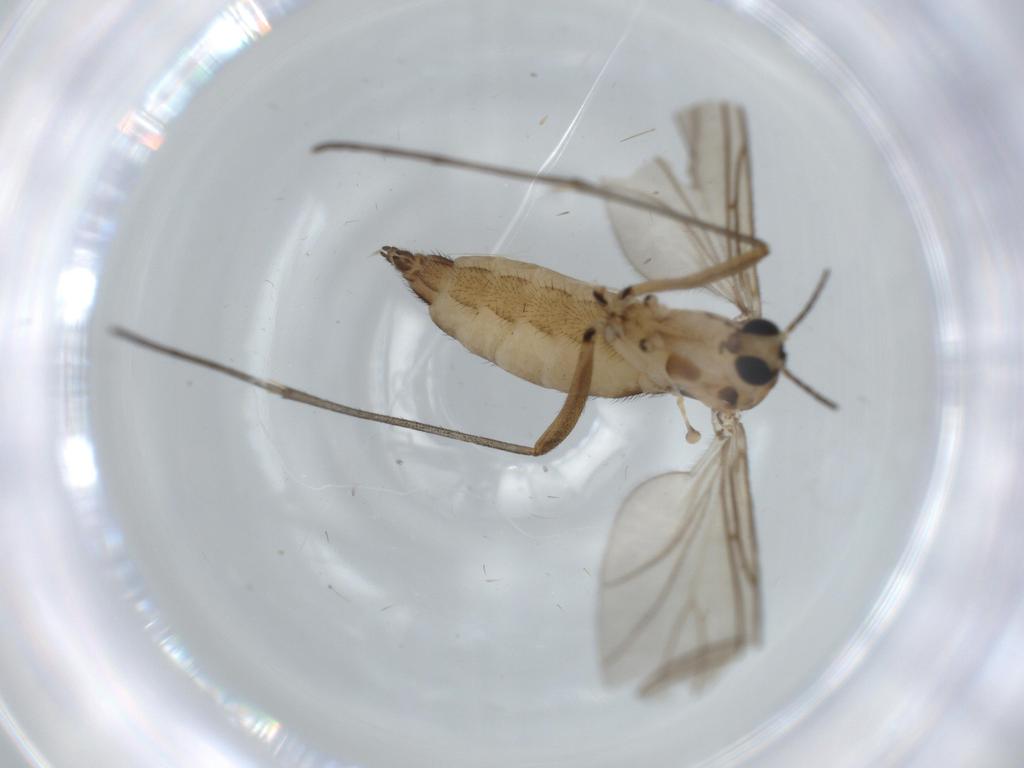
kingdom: Animalia
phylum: Arthropoda
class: Insecta
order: Diptera
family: Sciaridae
